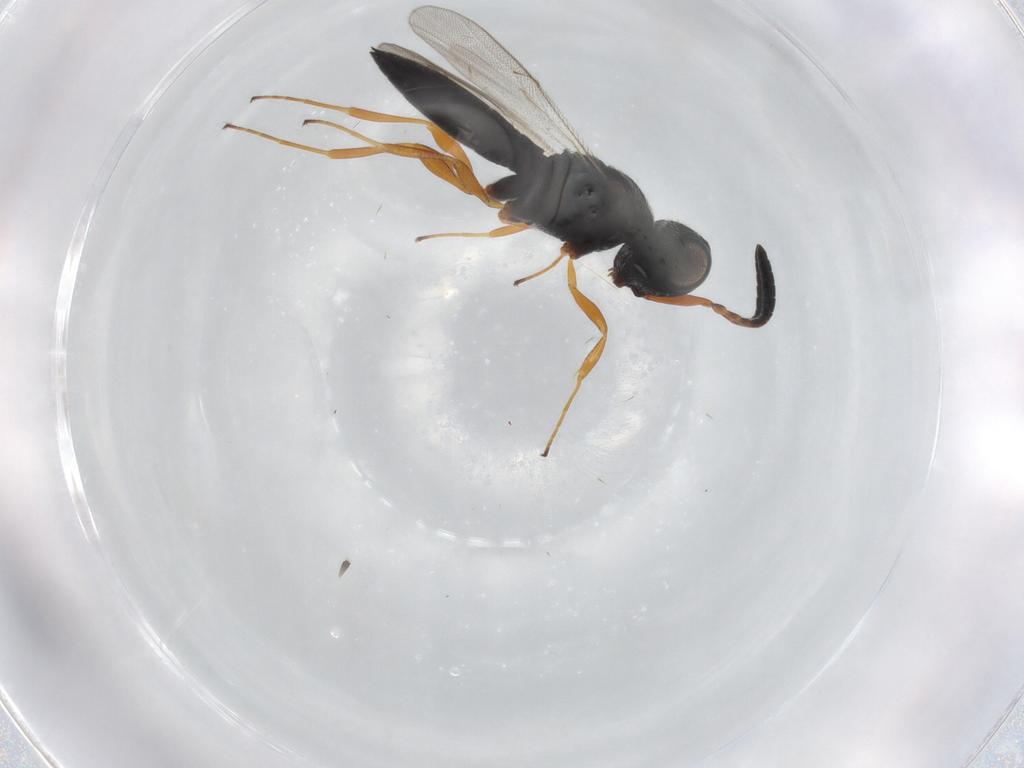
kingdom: Animalia
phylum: Arthropoda
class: Insecta
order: Hymenoptera
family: Scelionidae
